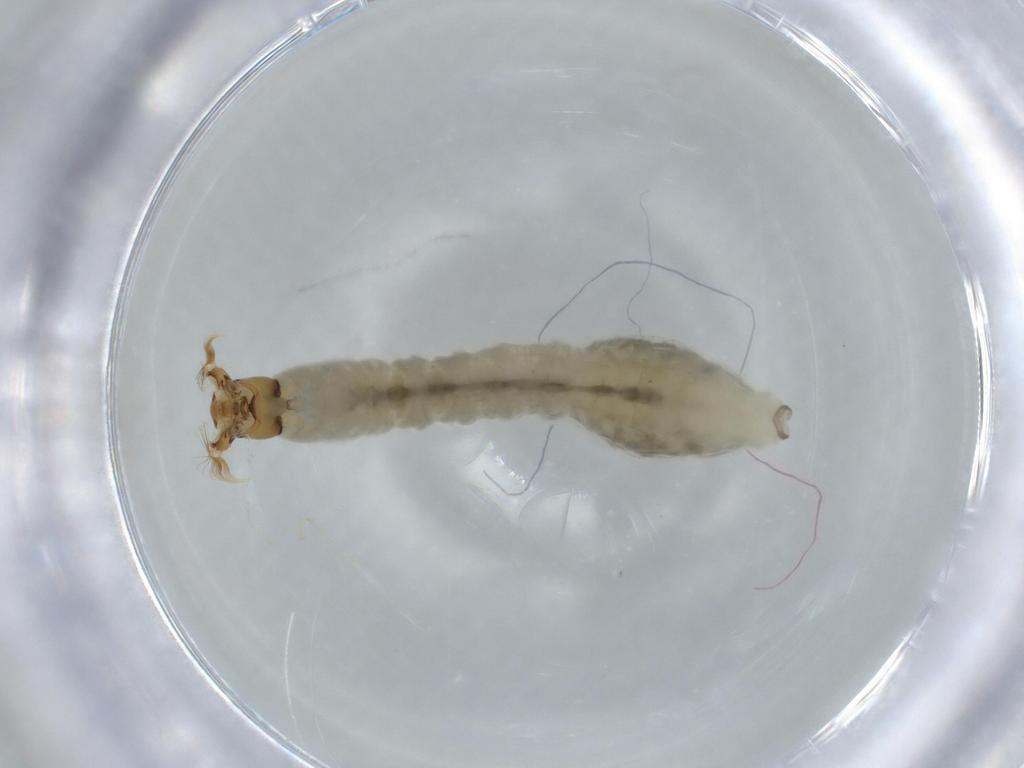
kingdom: Animalia
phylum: Arthropoda
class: Insecta
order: Diptera
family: Simuliidae
